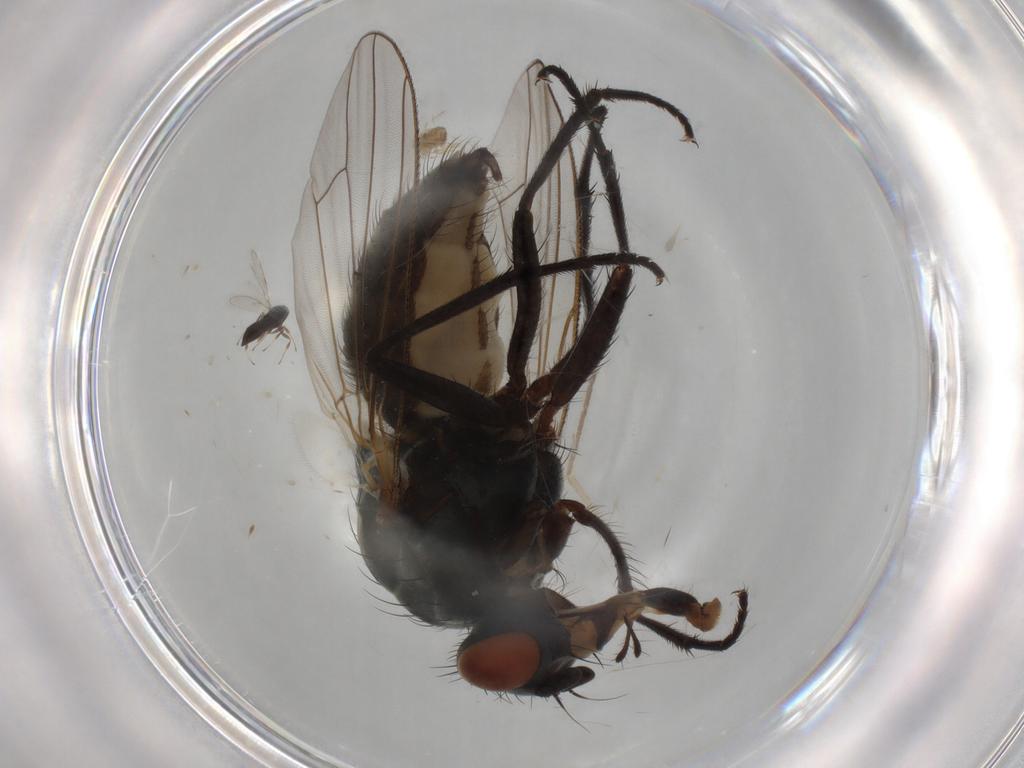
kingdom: Animalia
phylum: Arthropoda
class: Insecta
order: Diptera
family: Anthomyiidae
